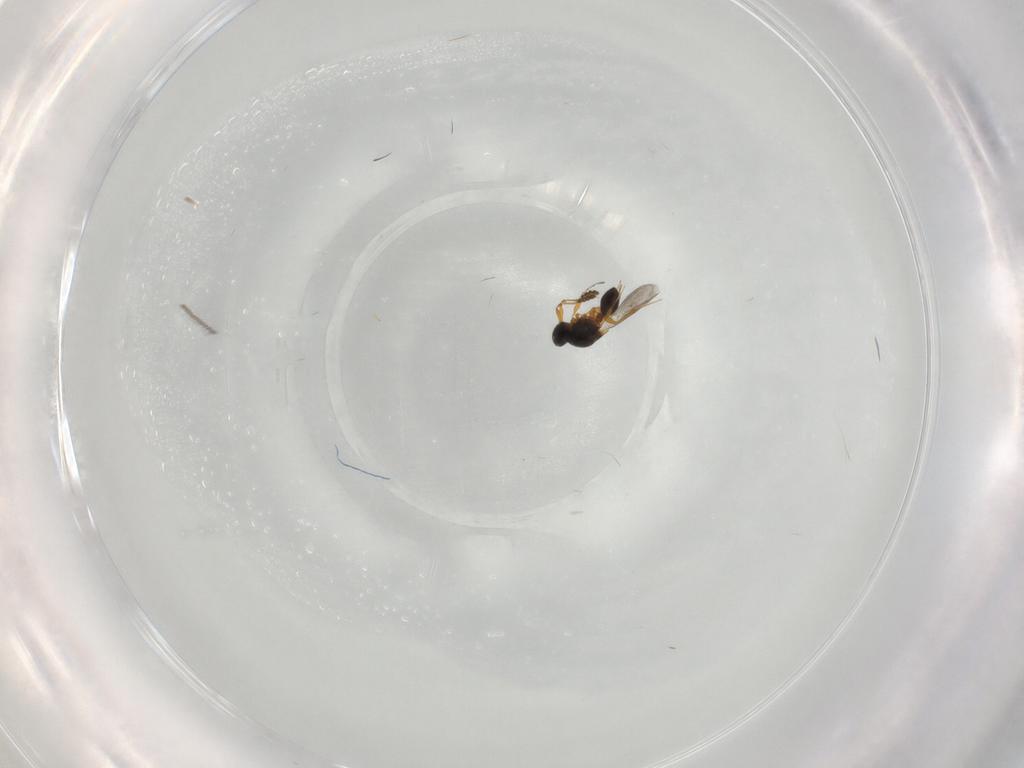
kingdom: Animalia
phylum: Arthropoda
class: Insecta
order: Hymenoptera
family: Platygastridae
